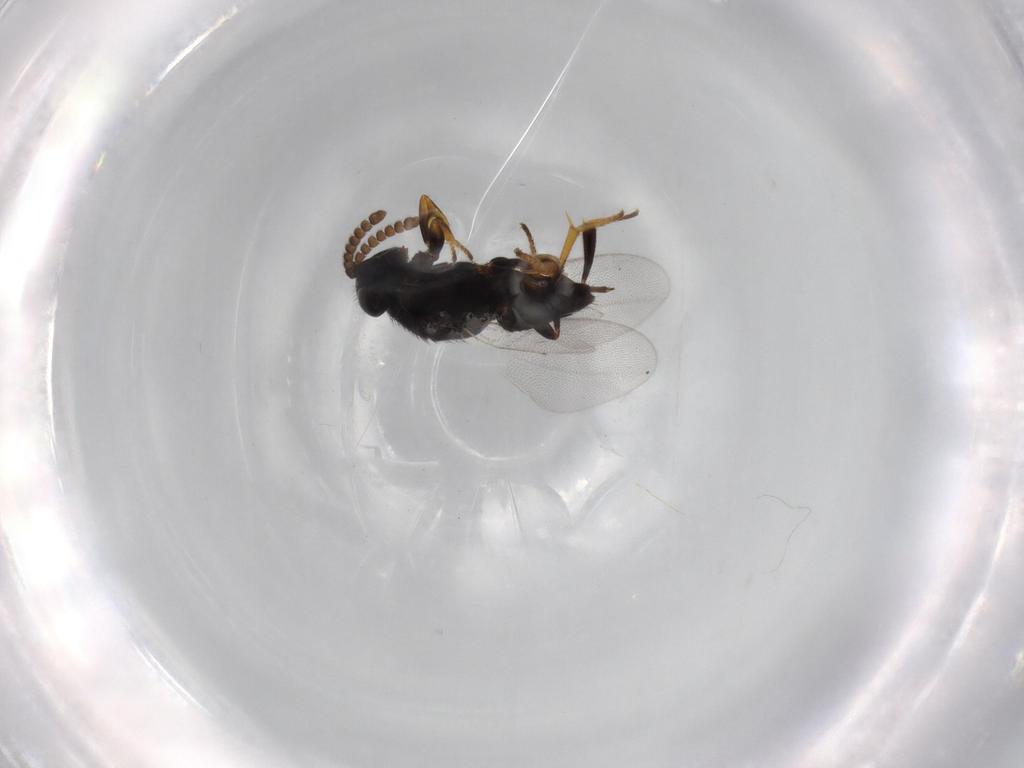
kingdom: Animalia
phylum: Arthropoda
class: Insecta
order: Hymenoptera
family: Encyrtidae
